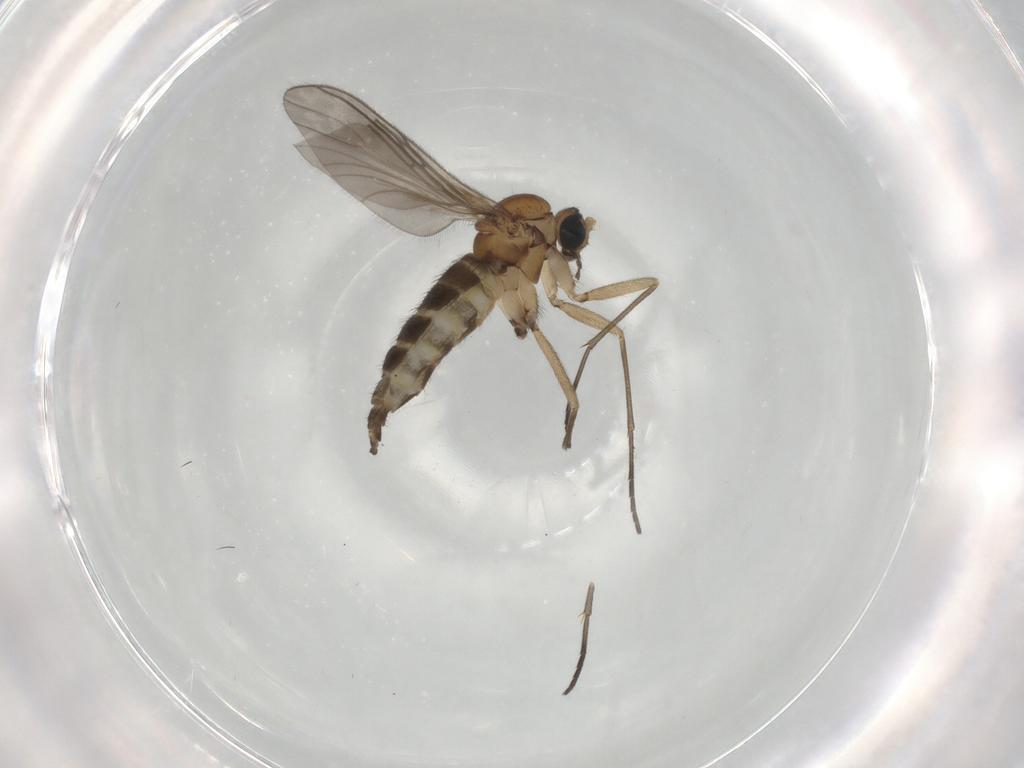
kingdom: Animalia
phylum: Arthropoda
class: Insecta
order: Diptera
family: Sciaridae
